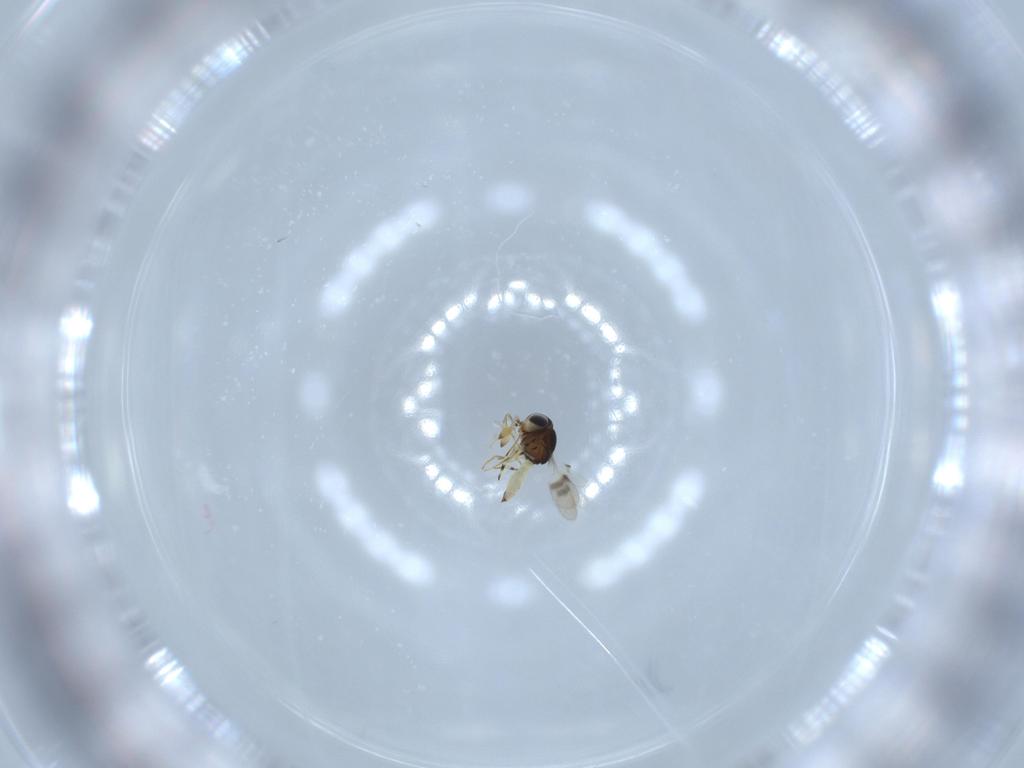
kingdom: Animalia
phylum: Arthropoda
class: Insecta
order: Hymenoptera
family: Scelionidae
